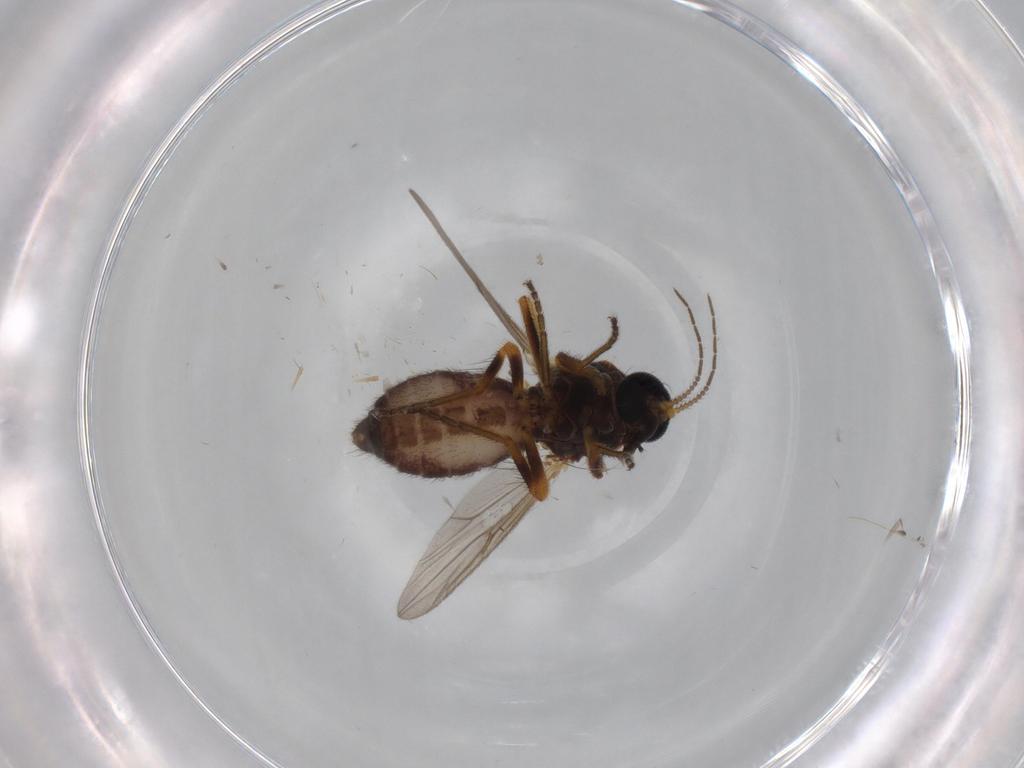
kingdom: Animalia
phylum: Arthropoda
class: Insecta
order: Diptera
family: Ceratopogonidae
